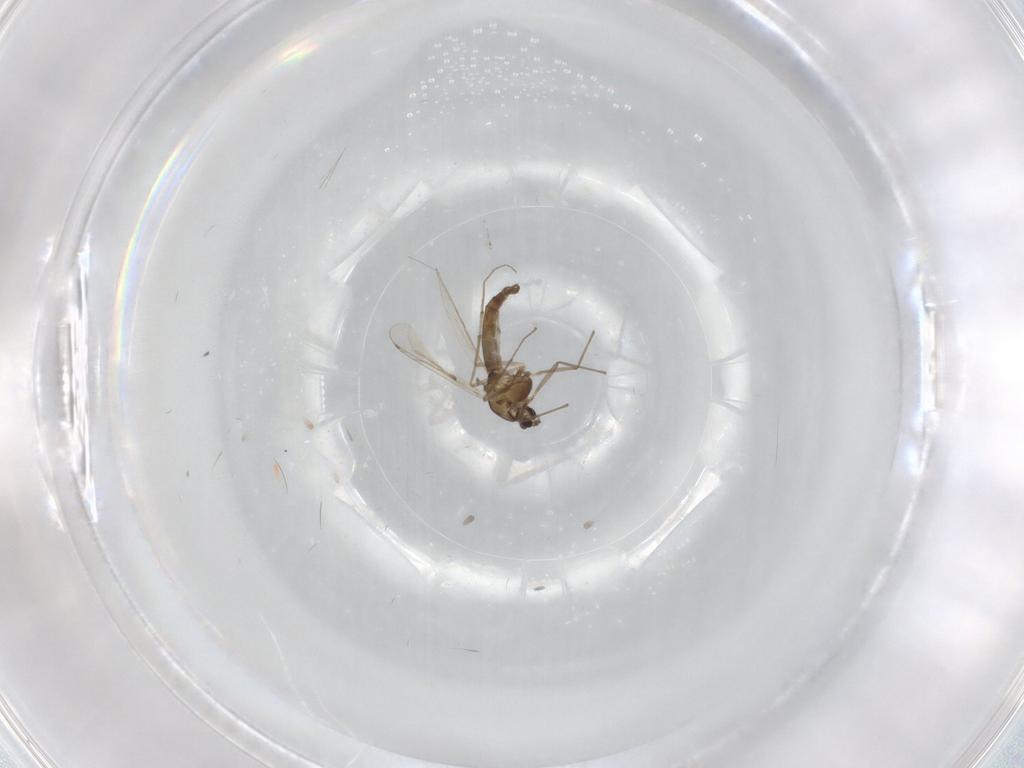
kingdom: Animalia
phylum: Arthropoda
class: Insecta
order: Diptera
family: Chironomidae
